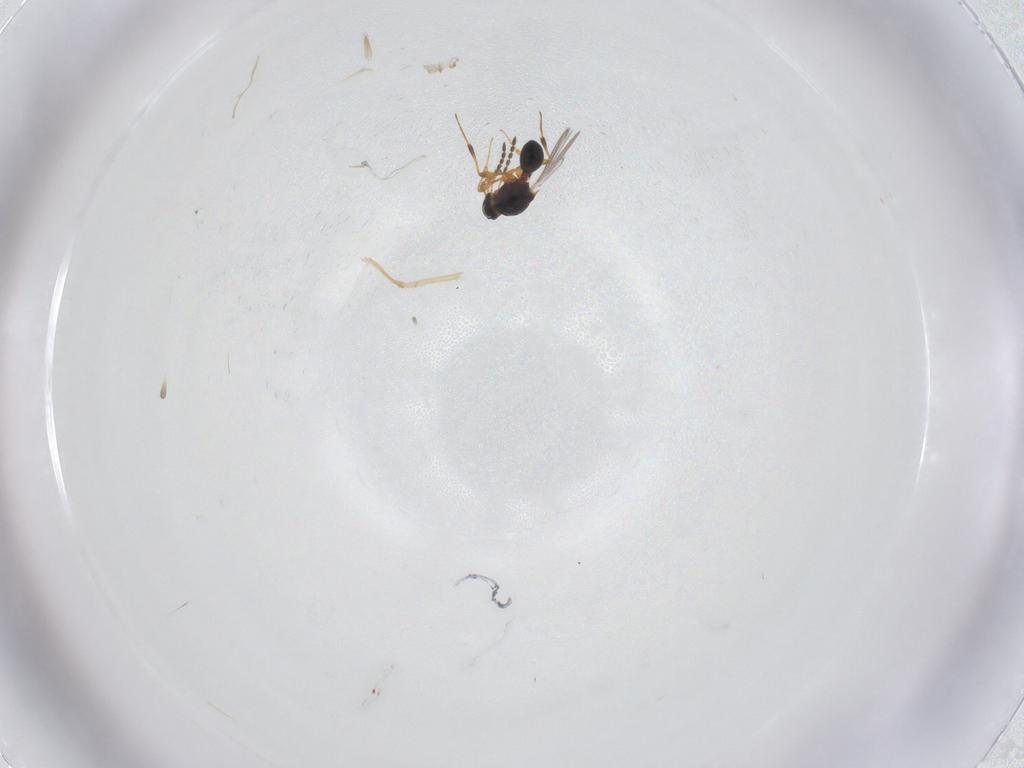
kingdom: Animalia
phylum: Arthropoda
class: Insecta
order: Hymenoptera
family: Platygastridae
